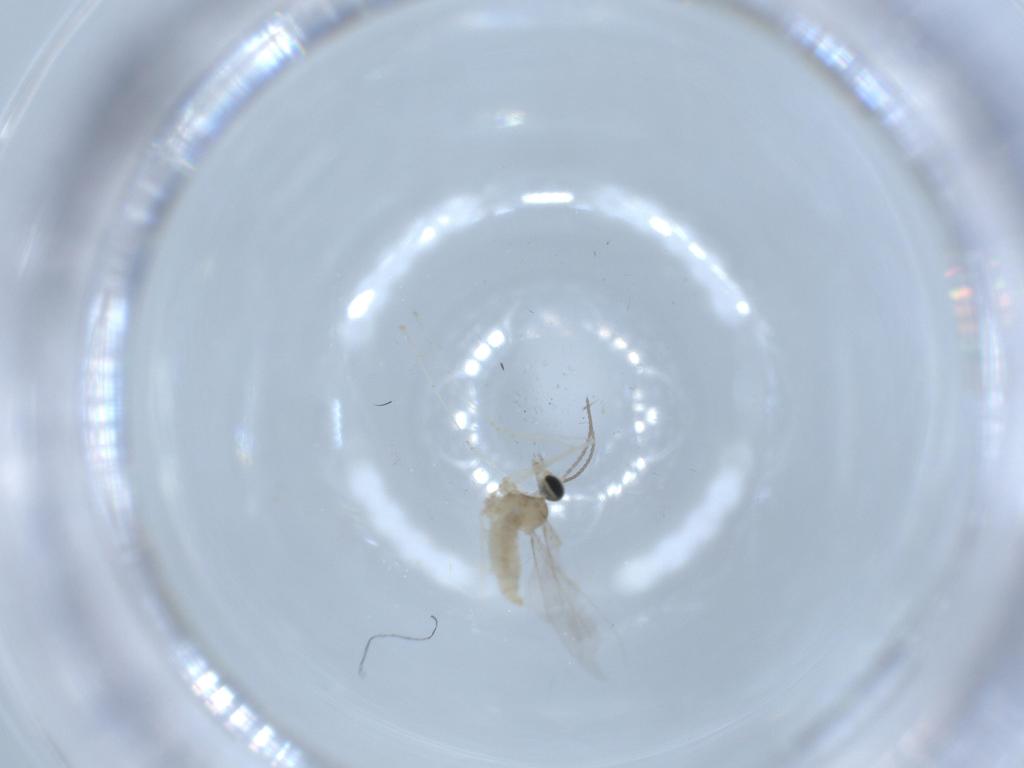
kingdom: Animalia
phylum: Arthropoda
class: Insecta
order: Diptera
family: Cecidomyiidae
